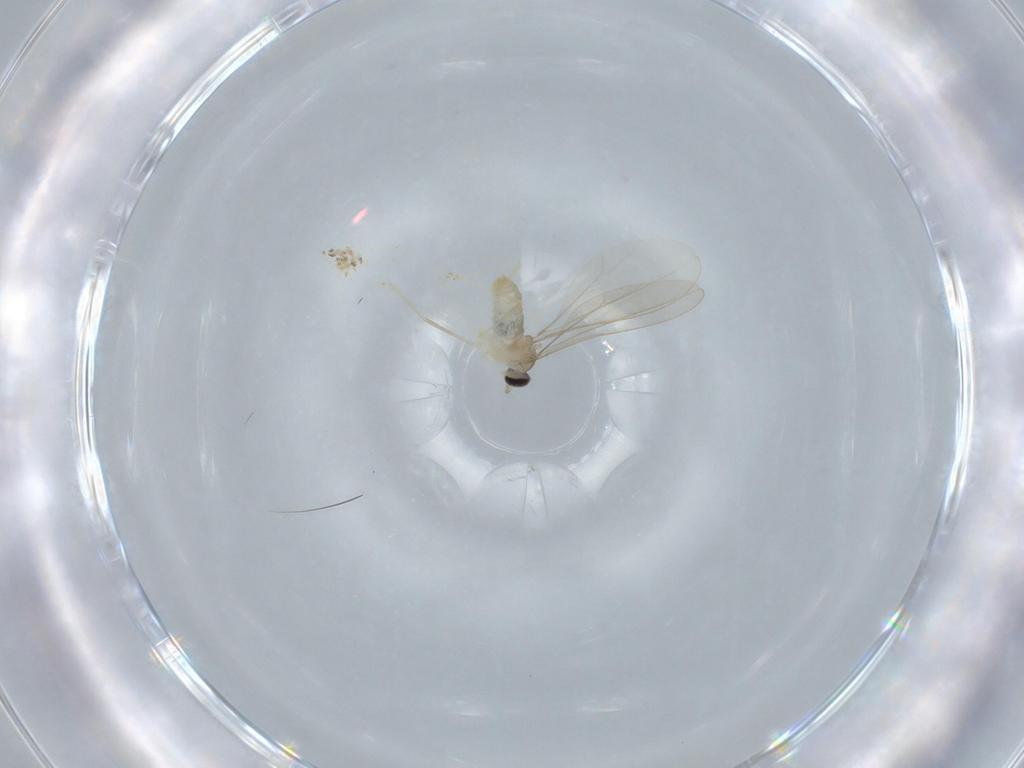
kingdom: Animalia
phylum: Arthropoda
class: Insecta
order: Diptera
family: Cecidomyiidae
